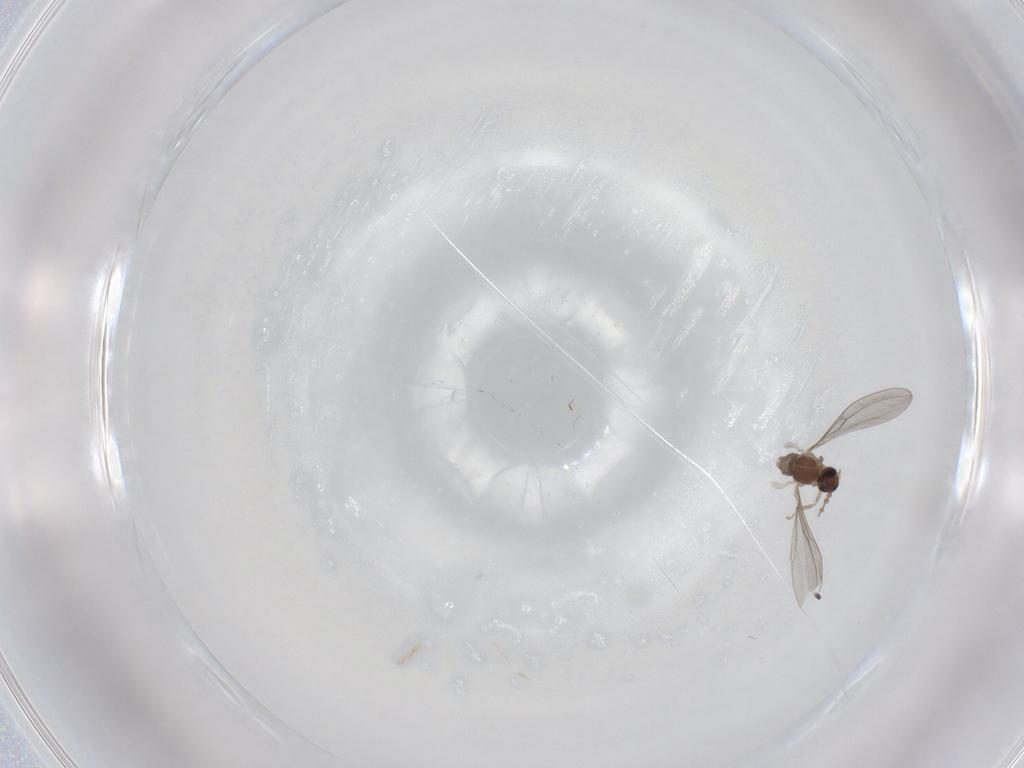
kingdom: Animalia
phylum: Arthropoda
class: Insecta
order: Diptera
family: Cecidomyiidae
